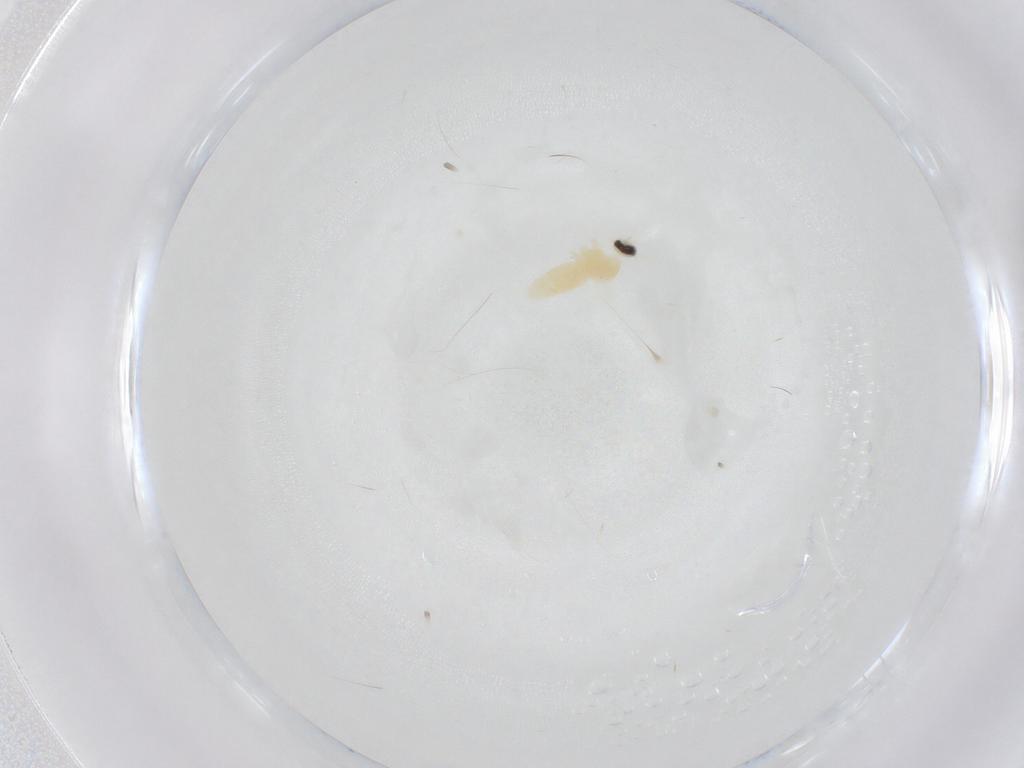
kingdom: Animalia
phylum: Arthropoda
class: Insecta
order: Diptera
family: Cecidomyiidae
